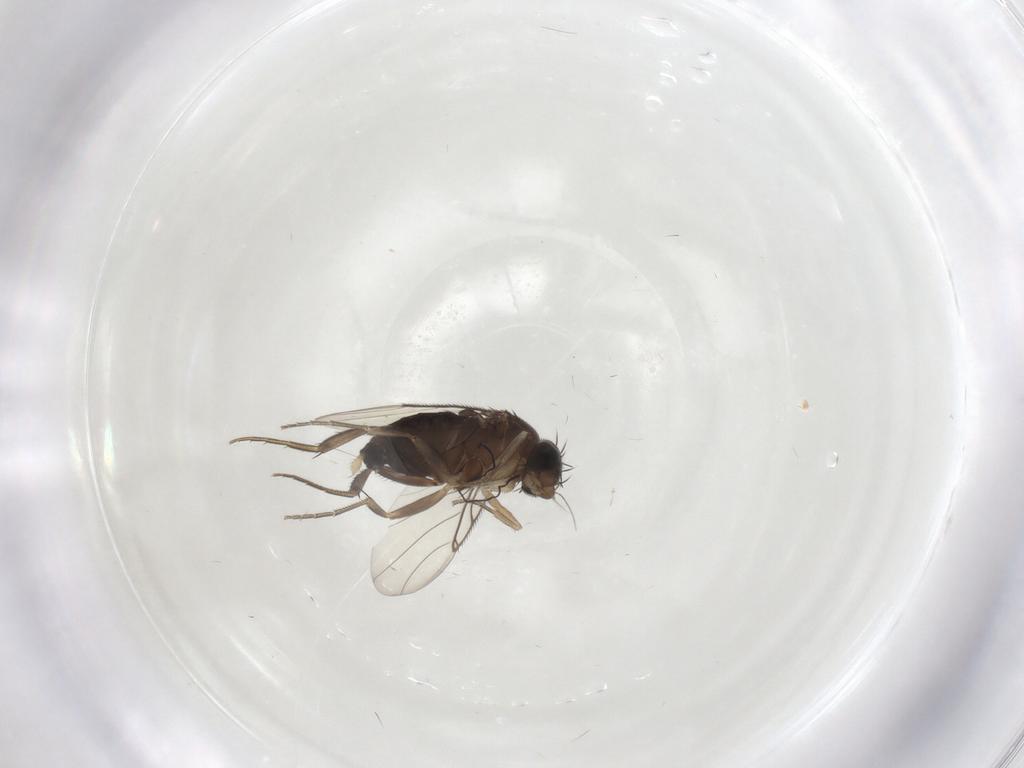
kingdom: Animalia
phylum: Arthropoda
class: Insecta
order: Diptera
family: Phoridae
